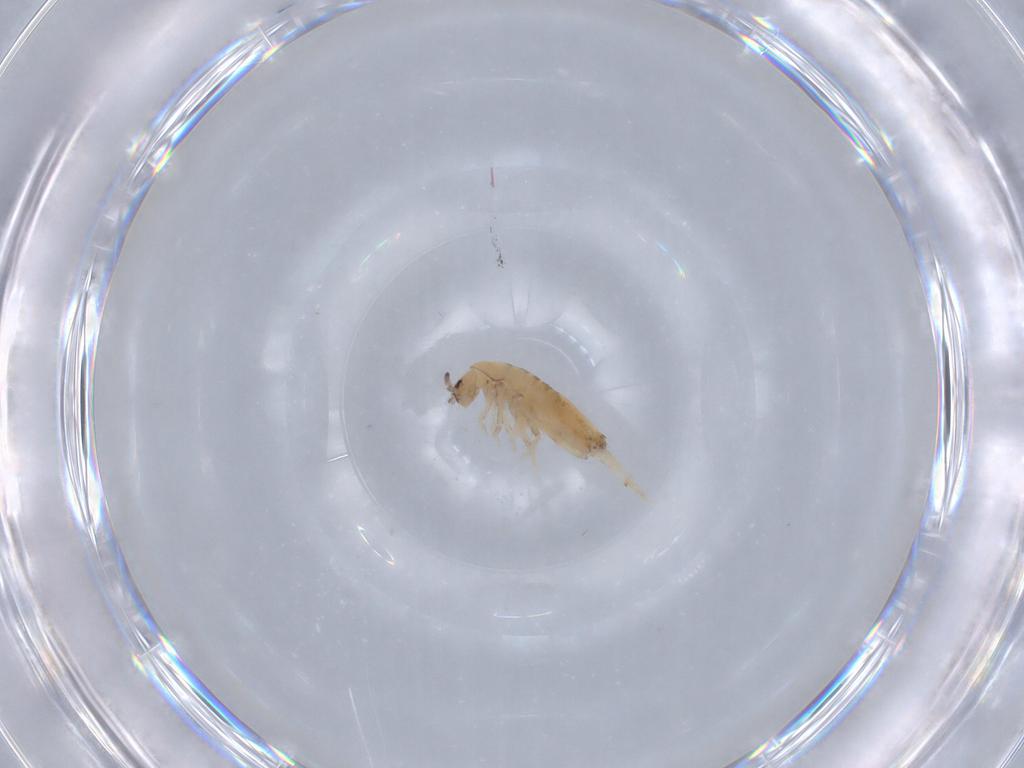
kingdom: Animalia
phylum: Arthropoda
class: Collembola
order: Entomobryomorpha
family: Entomobryidae
